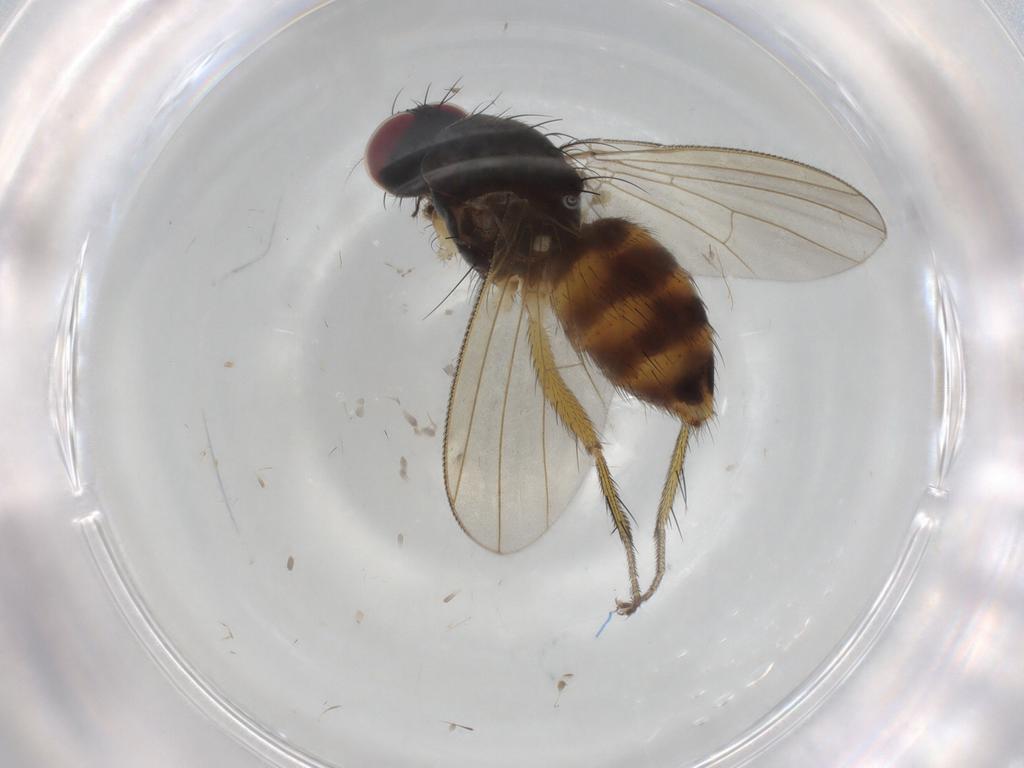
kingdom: Animalia
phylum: Arthropoda
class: Insecta
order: Diptera
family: Muscidae
